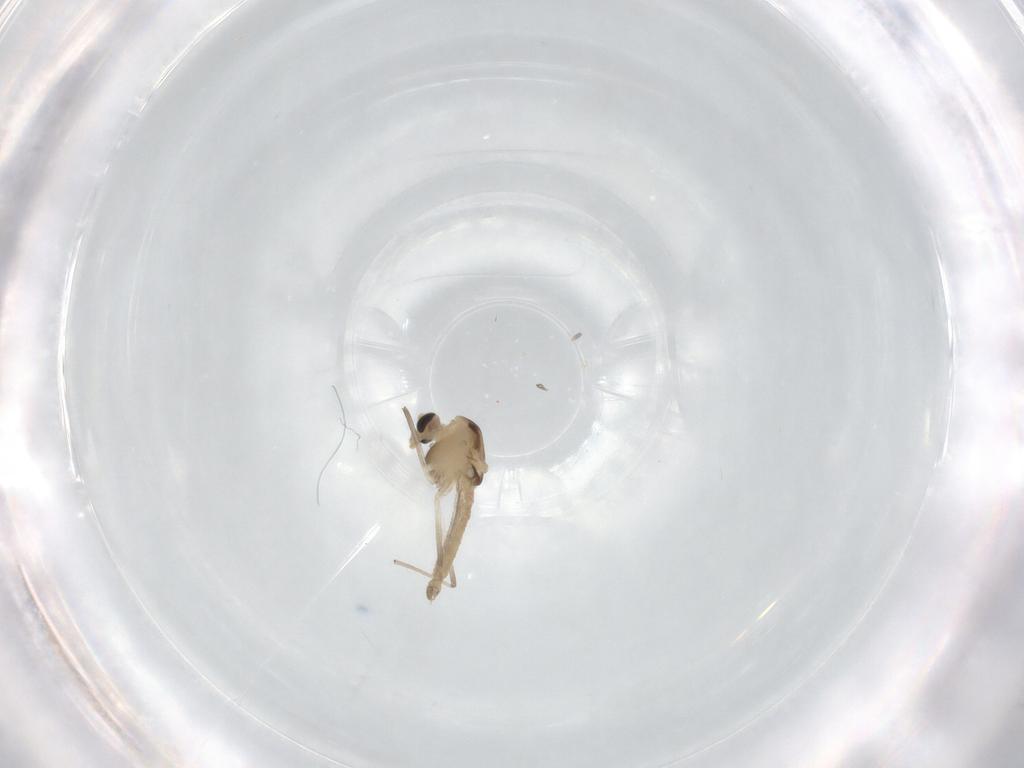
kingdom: Animalia
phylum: Arthropoda
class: Insecta
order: Diptera
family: Chironomidae
